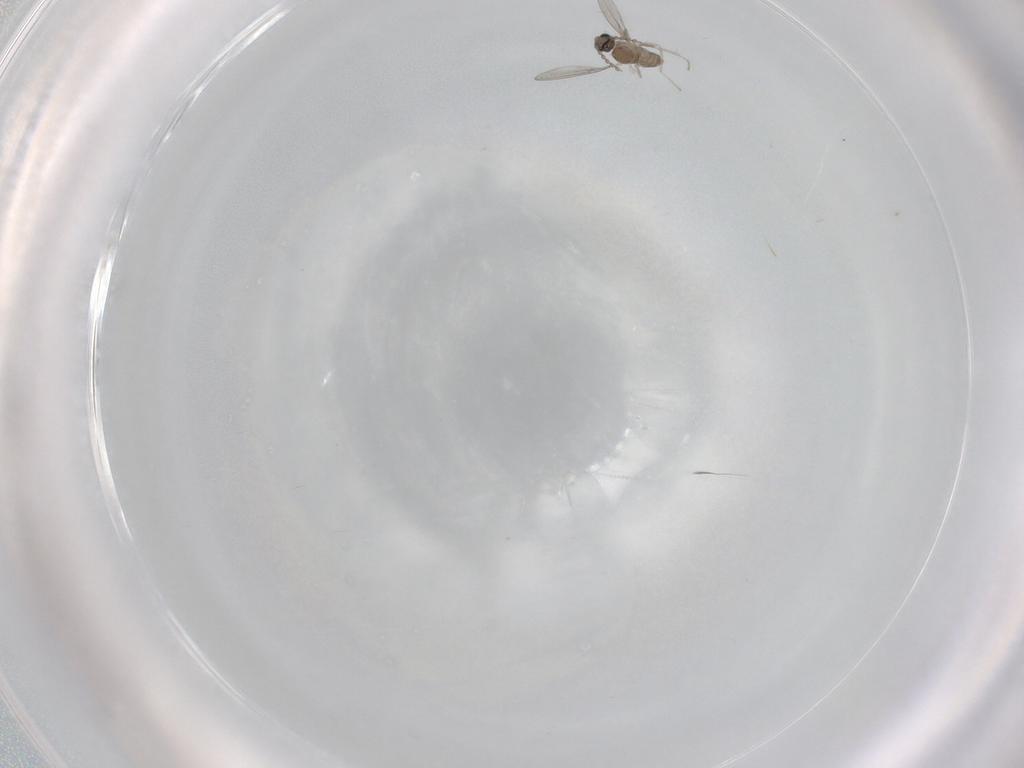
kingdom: Animalia
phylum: Arthropoda
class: Insecta
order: Diptera
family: Cecidomyiidae
